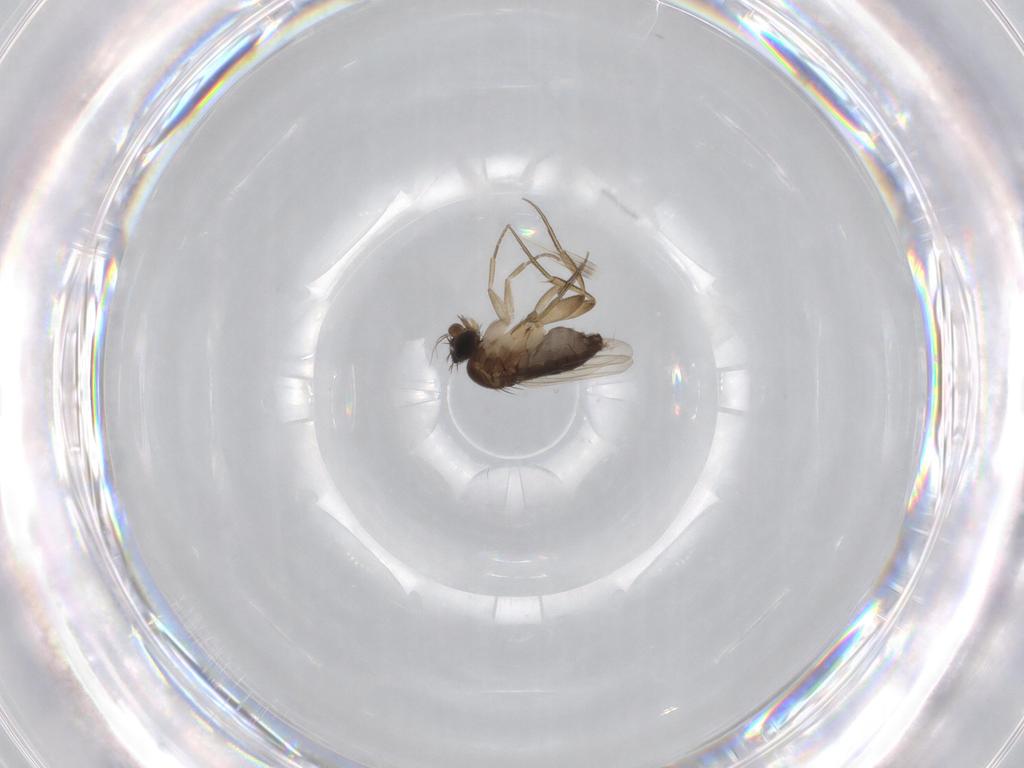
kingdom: Animalia
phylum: Arthropoda
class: Insecta
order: Diptera
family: Phoridae
